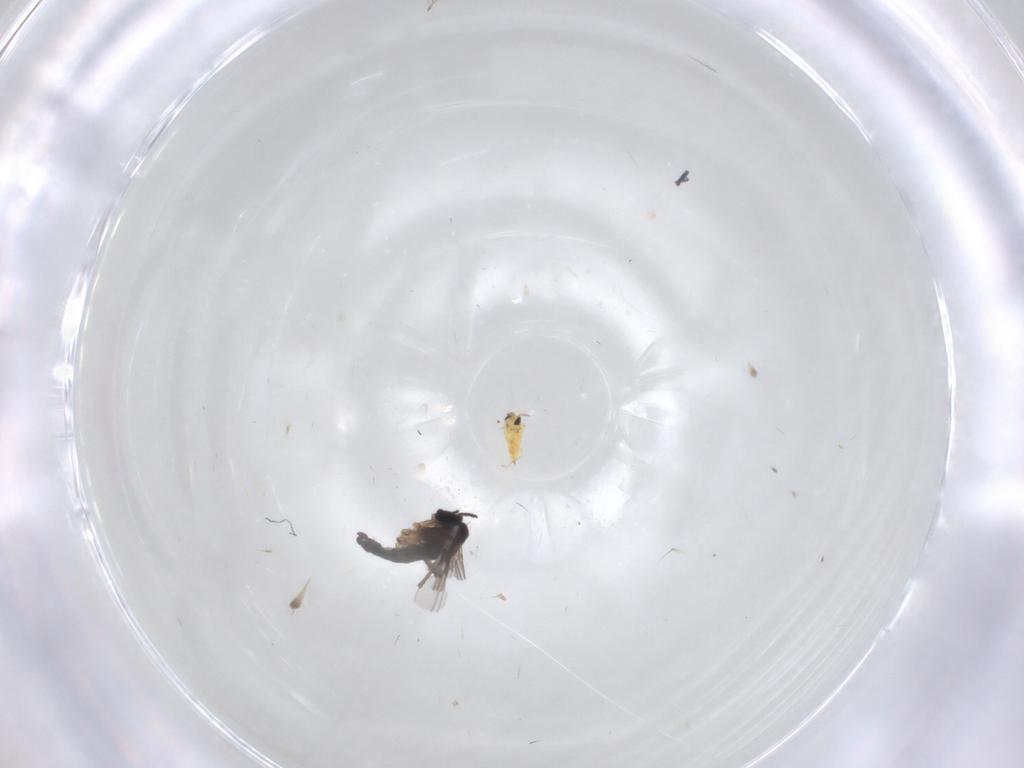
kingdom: Animalia
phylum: Arthropoda
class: Insecta
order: Diptera
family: Sciaridae
